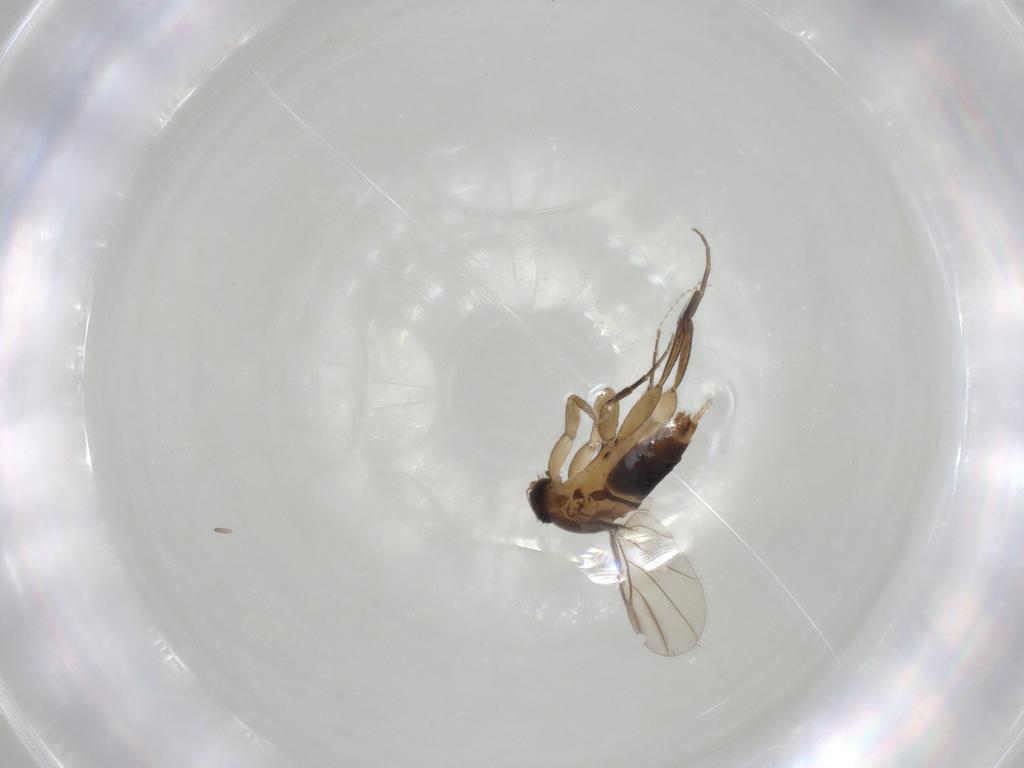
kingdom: Animalia
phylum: Arthropoda
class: Insecta
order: Diptera
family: Phoridae
